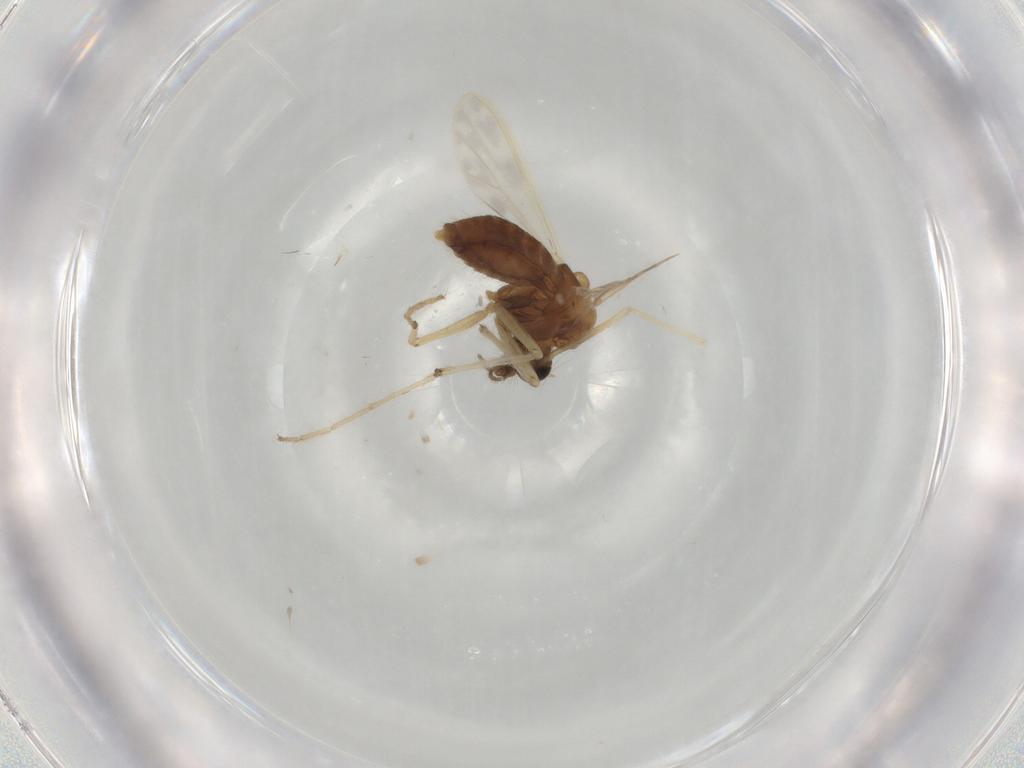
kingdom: Animalia
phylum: Arthropoda
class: Insecta
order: Diptera
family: Chironomidae
